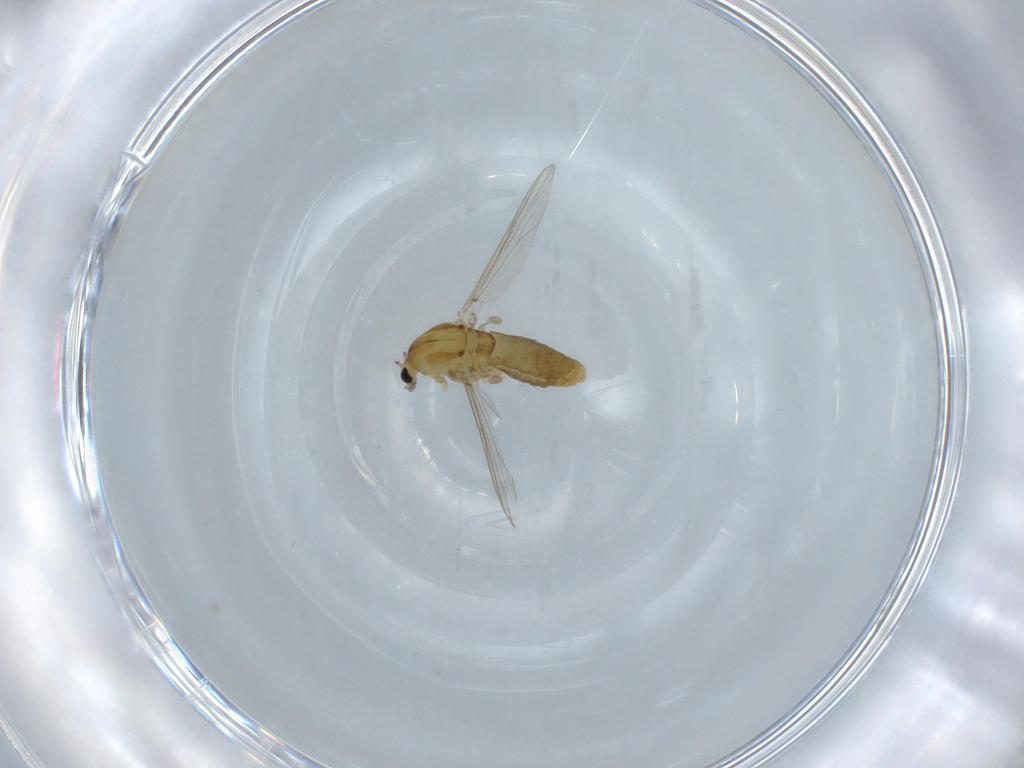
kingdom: Animalia
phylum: Arthropoda
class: Insecta
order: Diptera
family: Chironomidae
